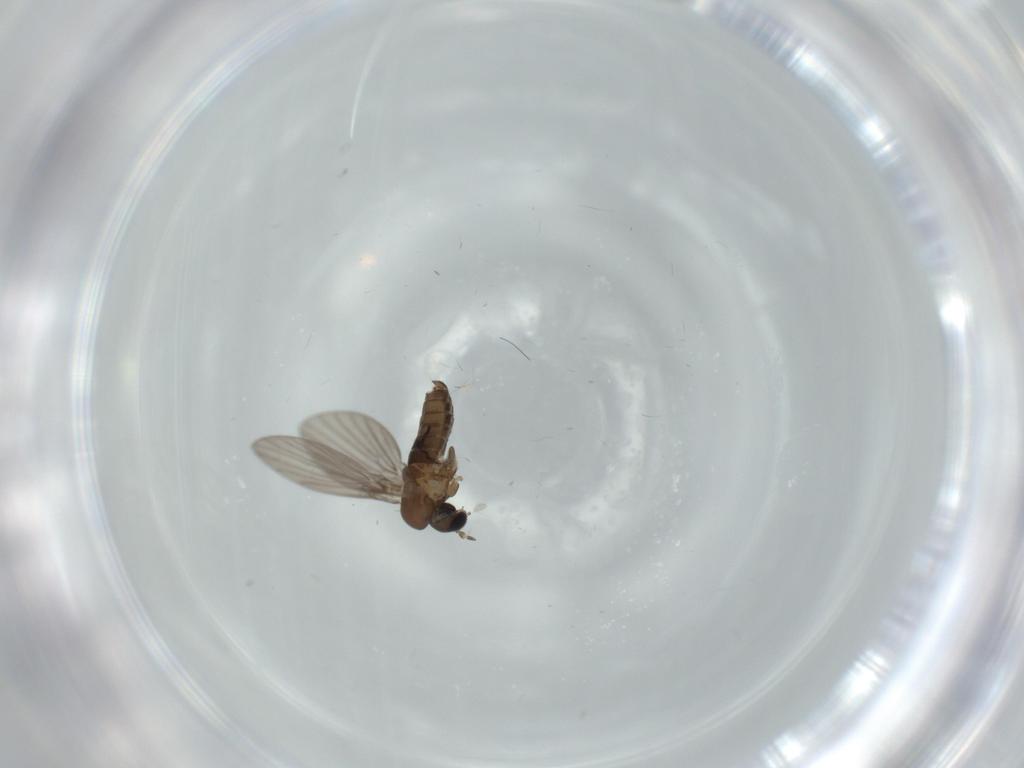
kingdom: Animalia
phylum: Arthropoda
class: Insecta
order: Diptera
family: Psychodidae
